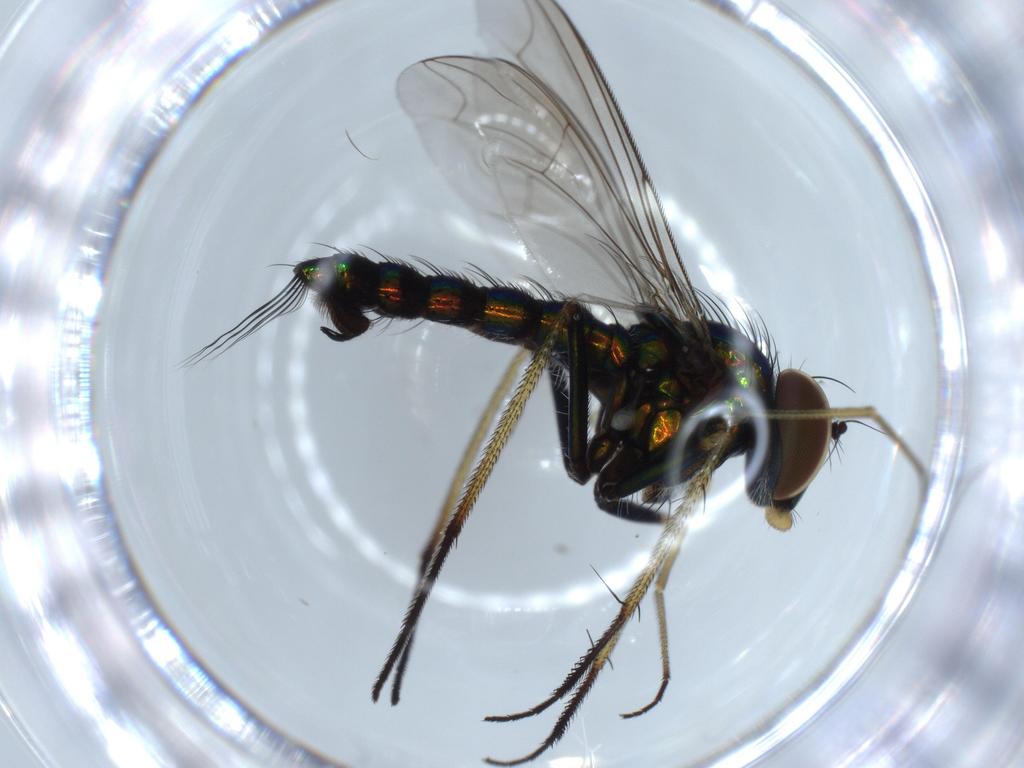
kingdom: Animalia
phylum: Arthropoda
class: Insecta
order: Diptera
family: Dolichopodidae
